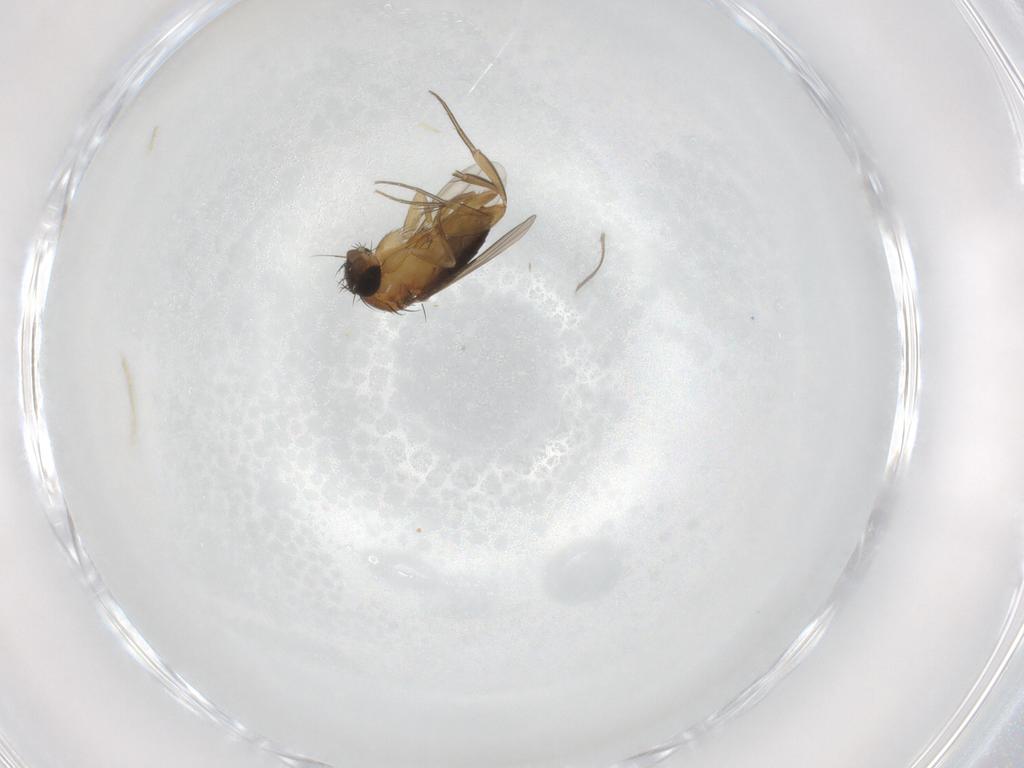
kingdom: Animalia
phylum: Arthropoda
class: Insecta
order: Diptera
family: Phoridae
